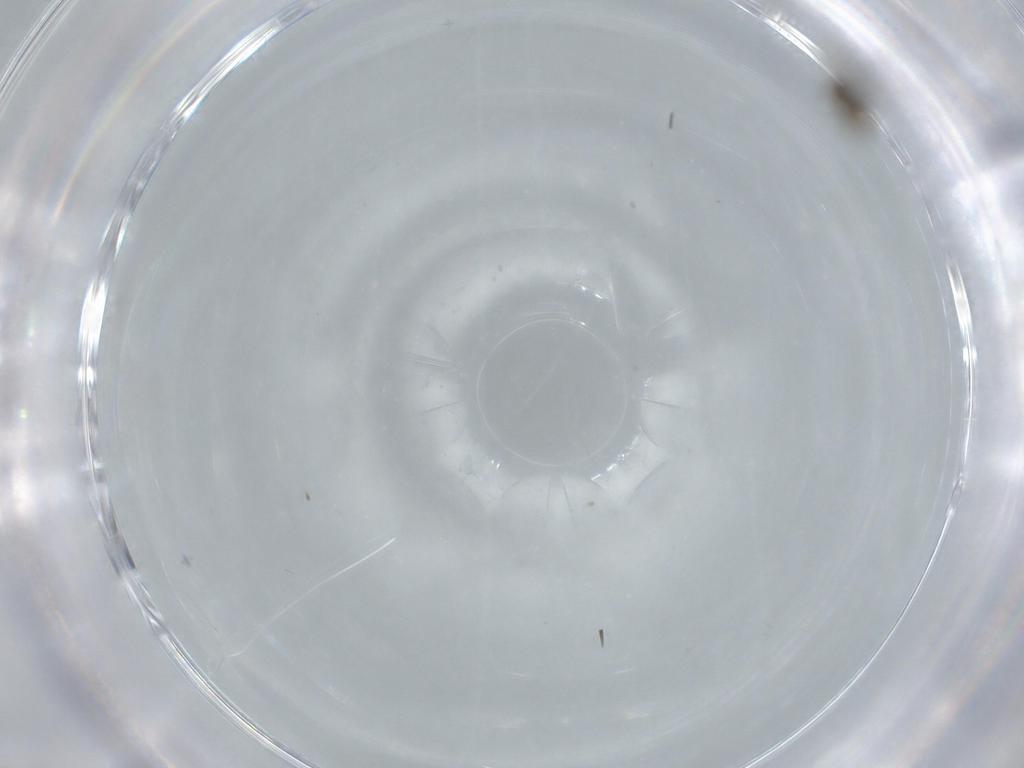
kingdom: Animalia
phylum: Arthropoda
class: Insecta
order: Diptera
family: Cecidomyiidae
